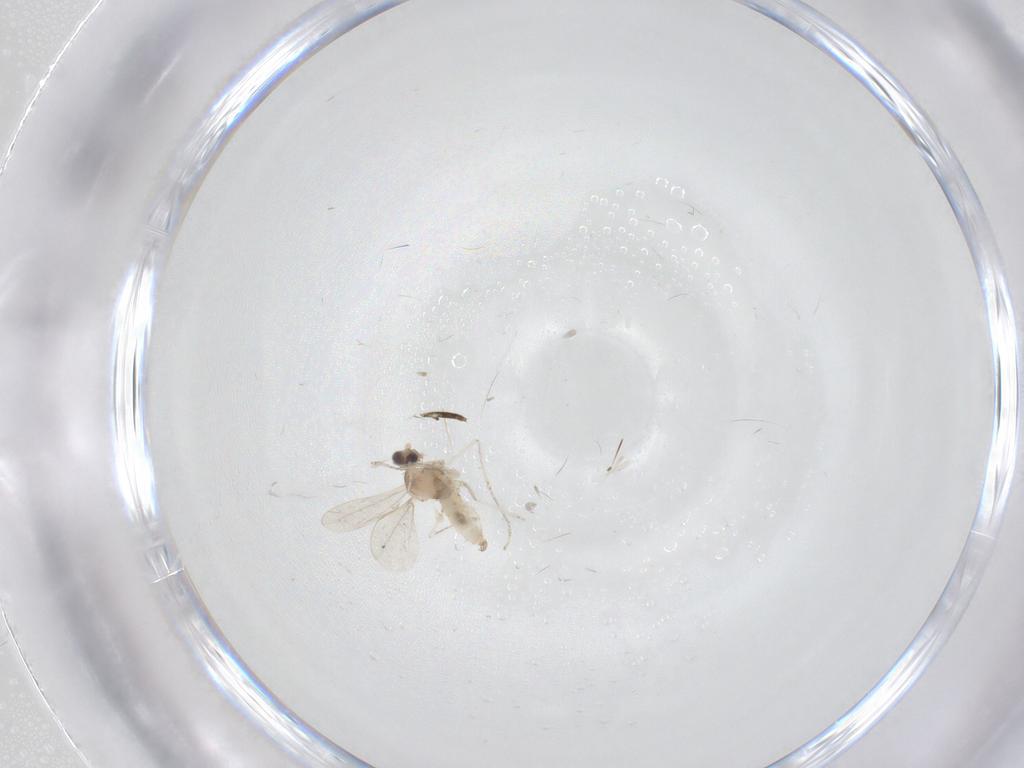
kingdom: Animalia
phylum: Arthropoda
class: Insecta
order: Diptera
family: Cecidomyiidae
